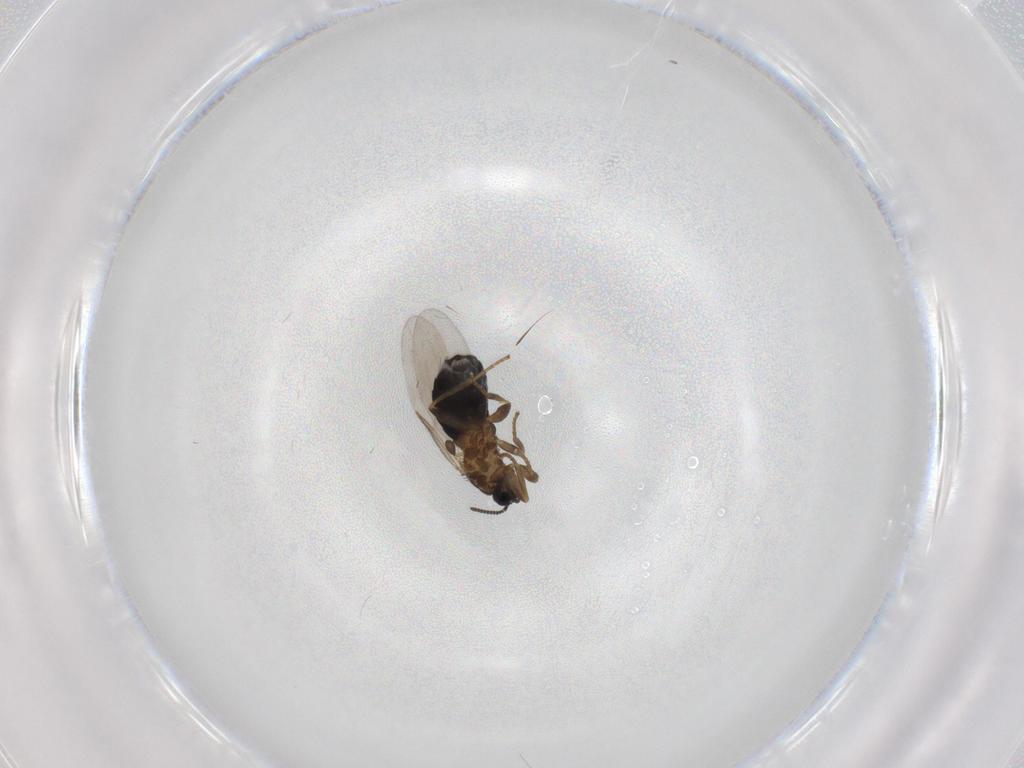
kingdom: Animalia
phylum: Arthropoda
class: Insecta
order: Diptera
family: Scatopsidae
